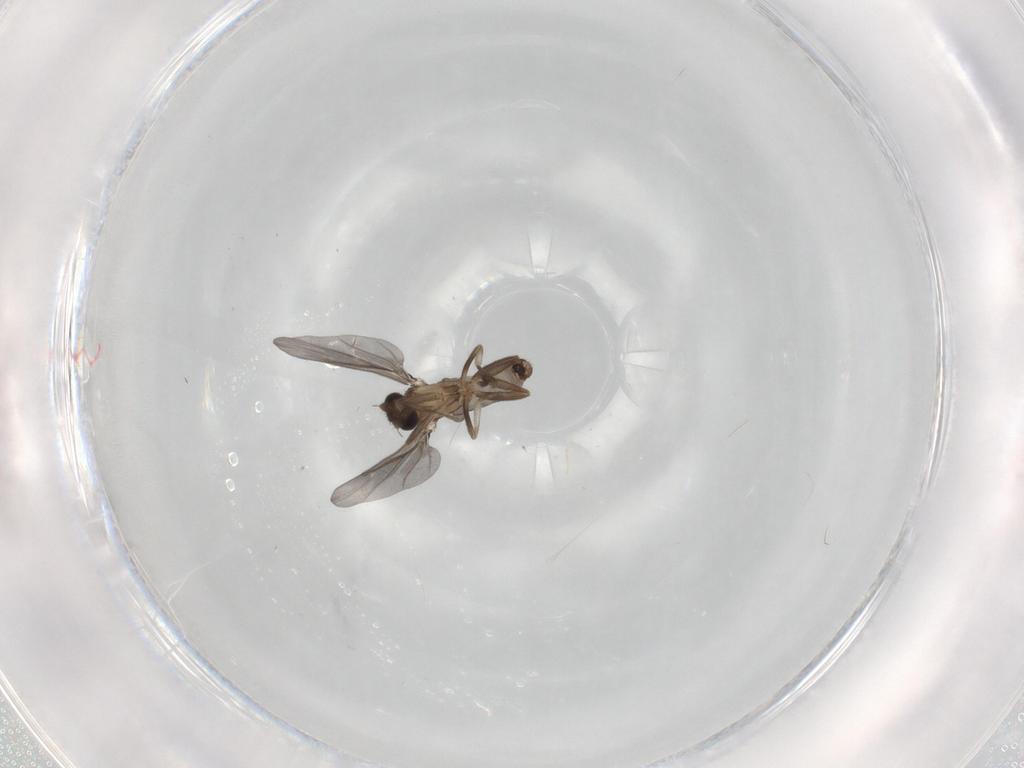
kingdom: Animalia
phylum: Arthropoda
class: Insecta
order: Diptera
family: Phoridae
